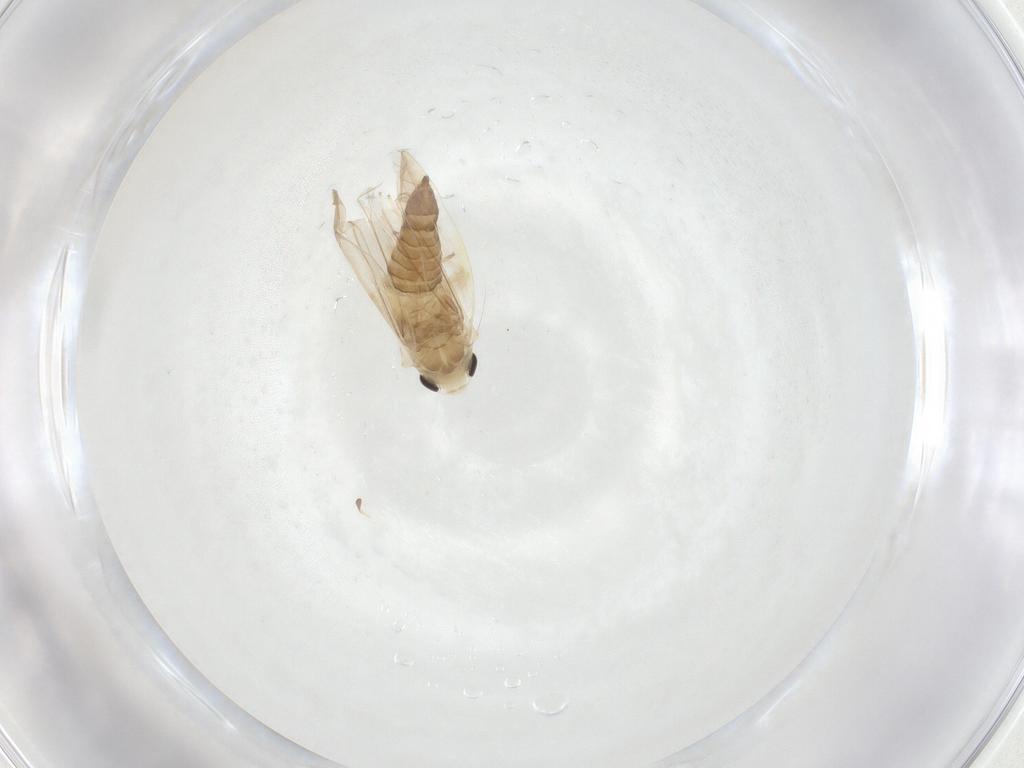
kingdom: Animalia
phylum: Arthropoda
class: Insecta
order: Hemiptera
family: Cicadellidae
